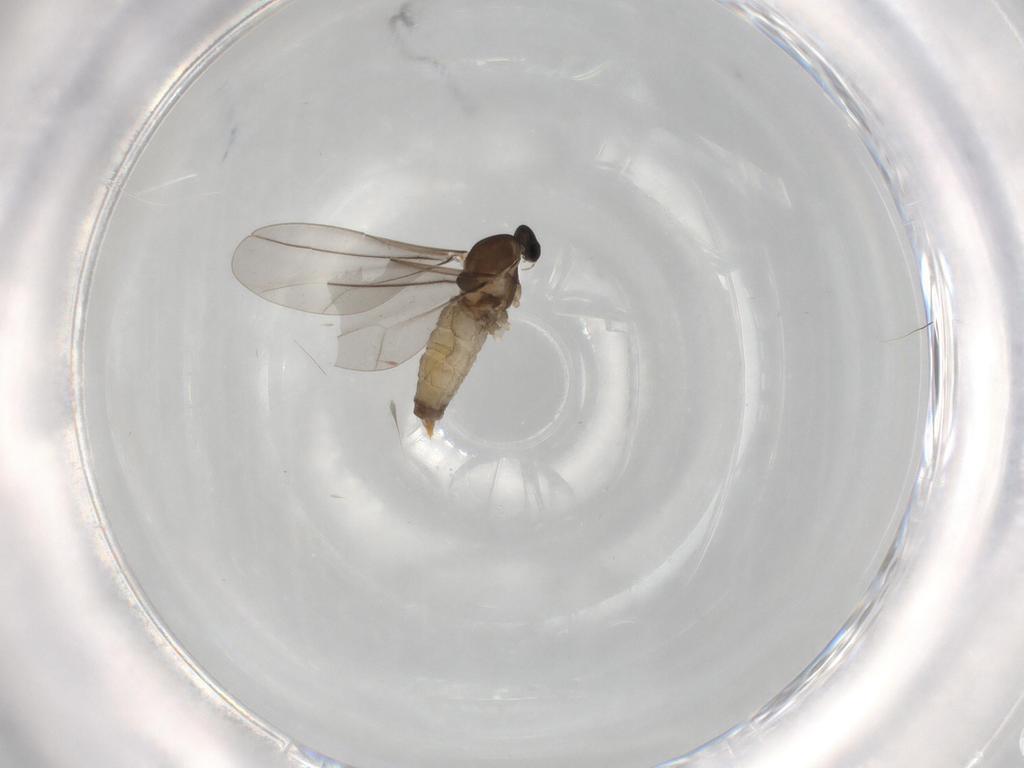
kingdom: Animalia
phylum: Arthropoda
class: Insecta
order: Diptera
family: Cecidomyiidae
